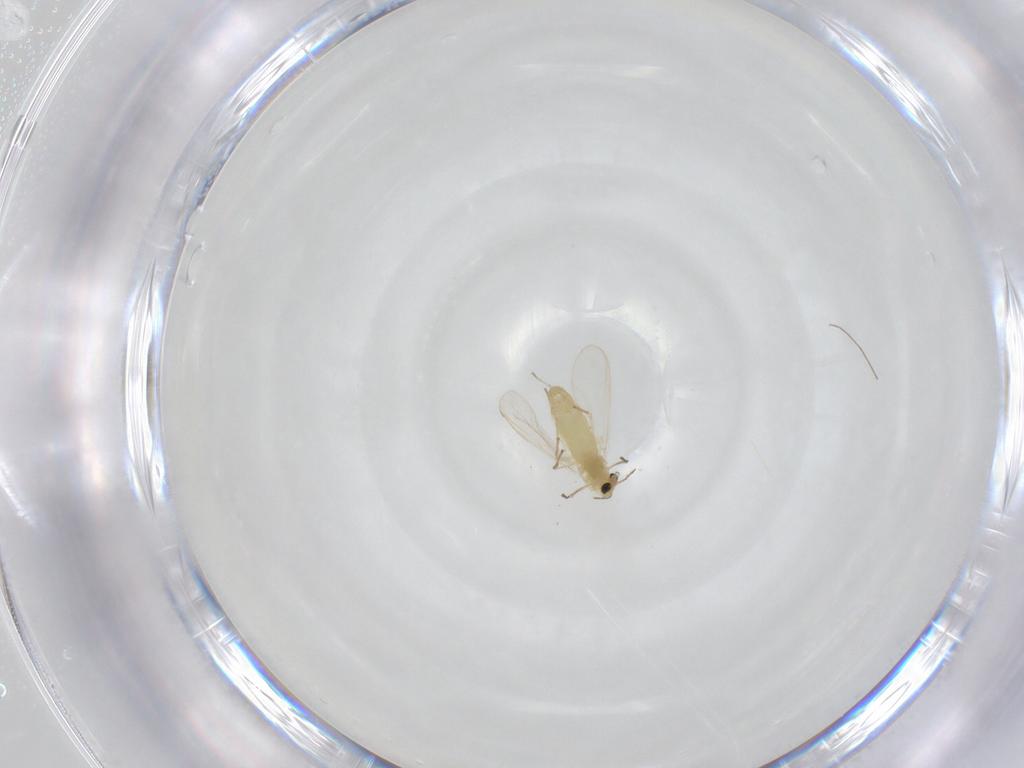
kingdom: Animalia
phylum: Arthropoda
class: Insecta
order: Diptera
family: Chironomidae
